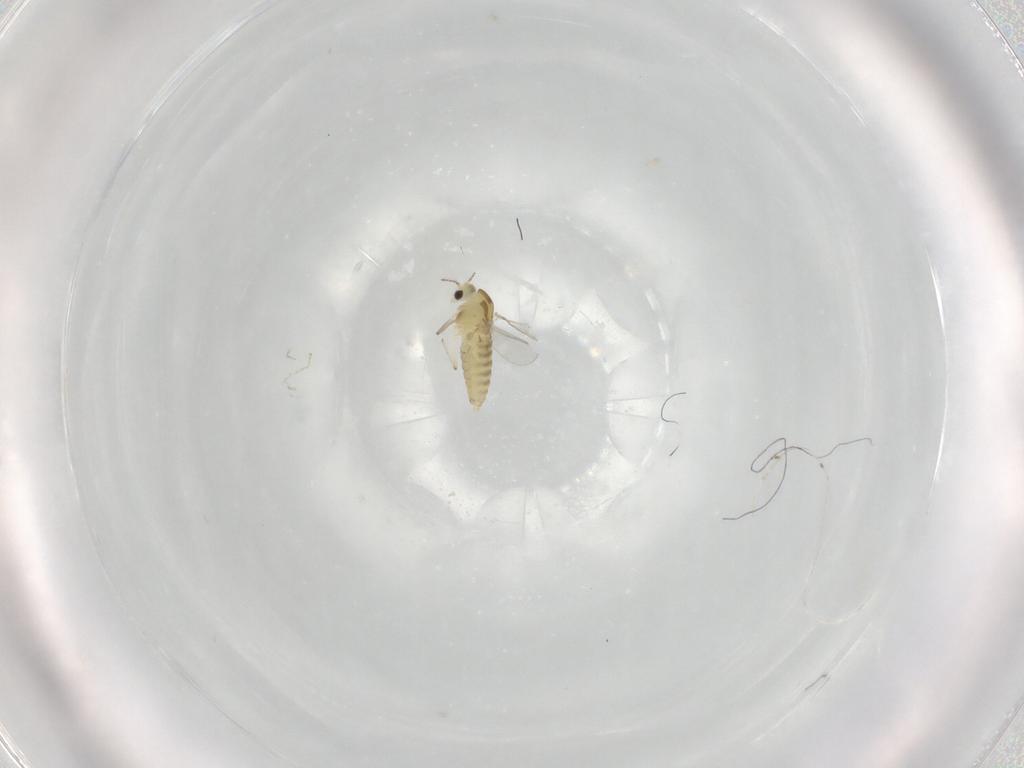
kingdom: Animalia
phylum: Arthropoda
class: Insecta
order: Diptera
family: Chironomidae
